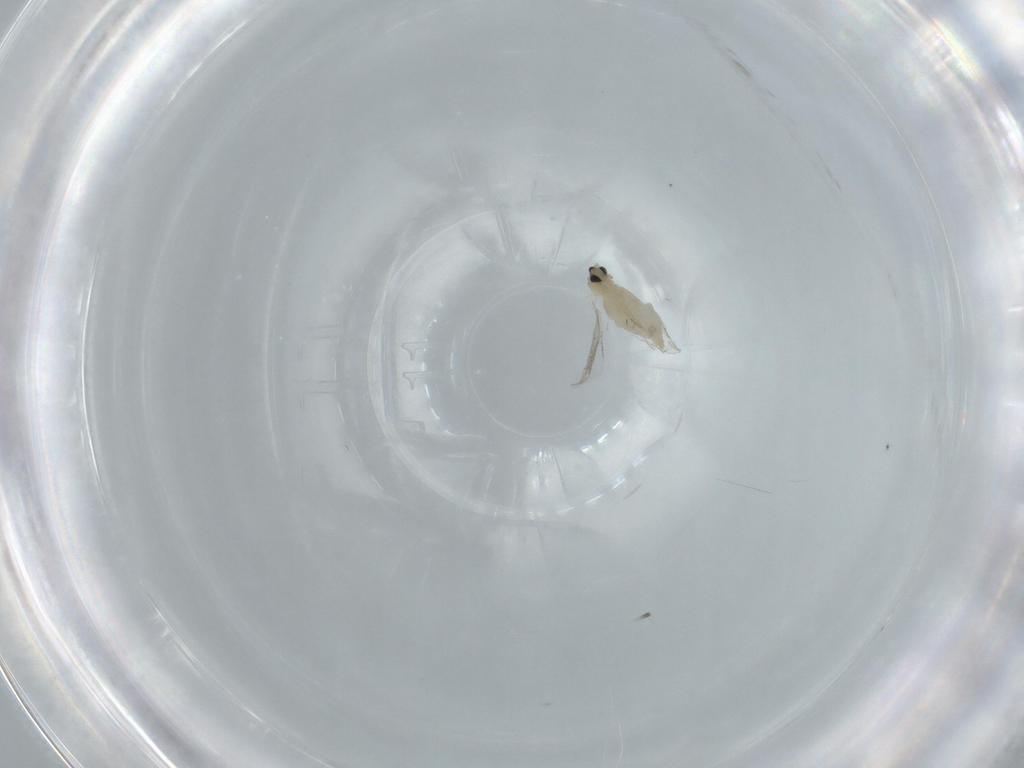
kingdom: Animalia
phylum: Arthropoda
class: Insecta
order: Diptera
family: Cecidomyiidae
